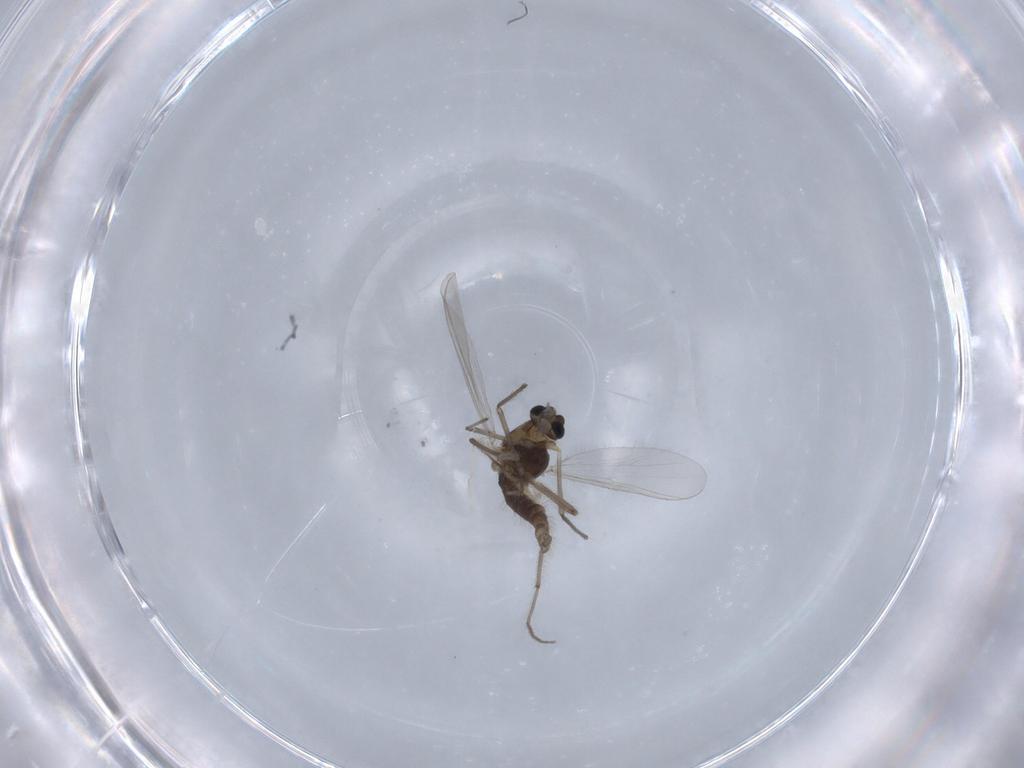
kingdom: Animalia
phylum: Arthropoda
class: Insecta
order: Diptera
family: Chironomidae
